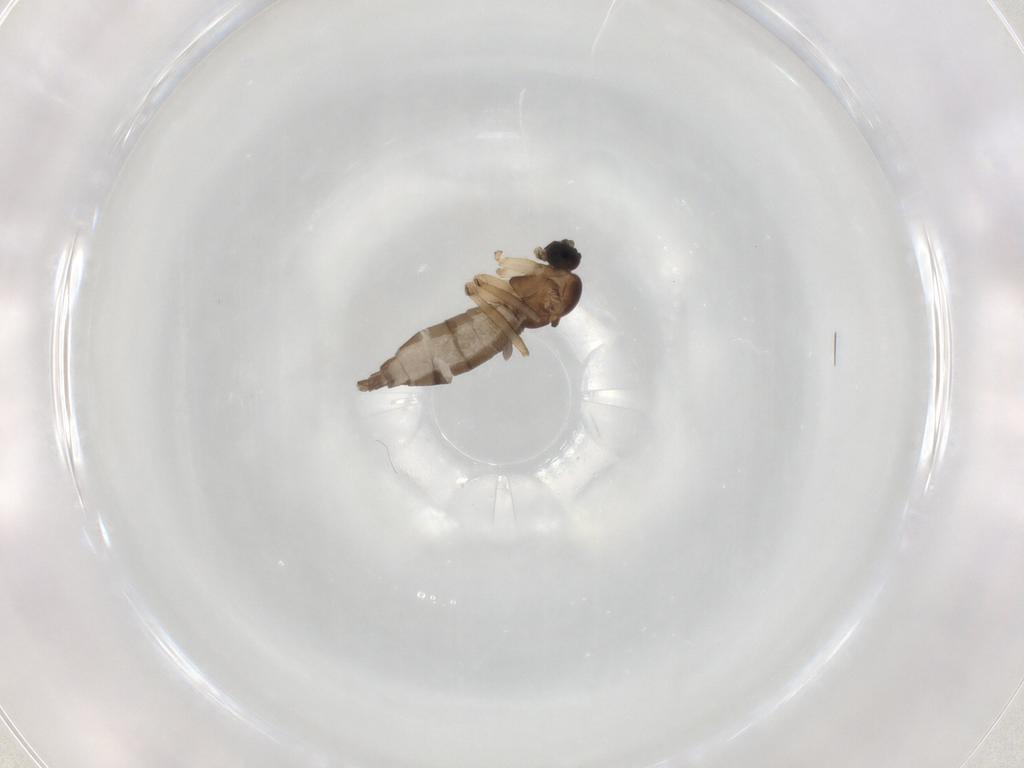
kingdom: Animalia
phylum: Arthropoda
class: Insecta
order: Diptera
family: Sciaridae
